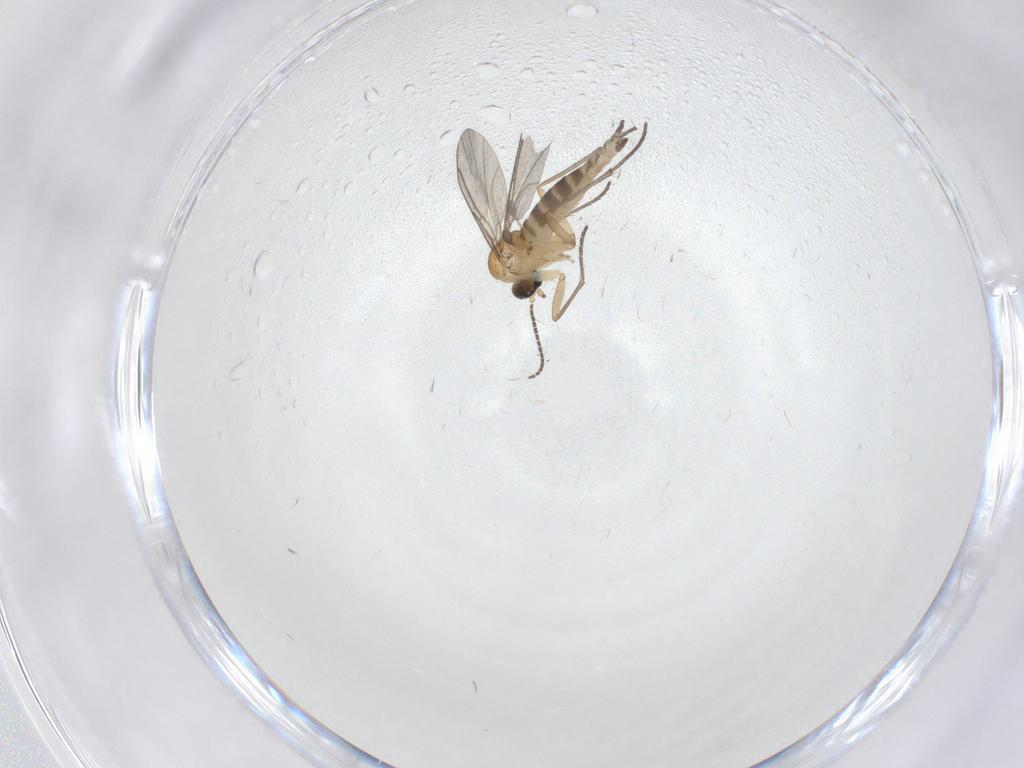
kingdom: Animalia
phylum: Arthropoda
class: Insecta
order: Diptera
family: Sciaridae
